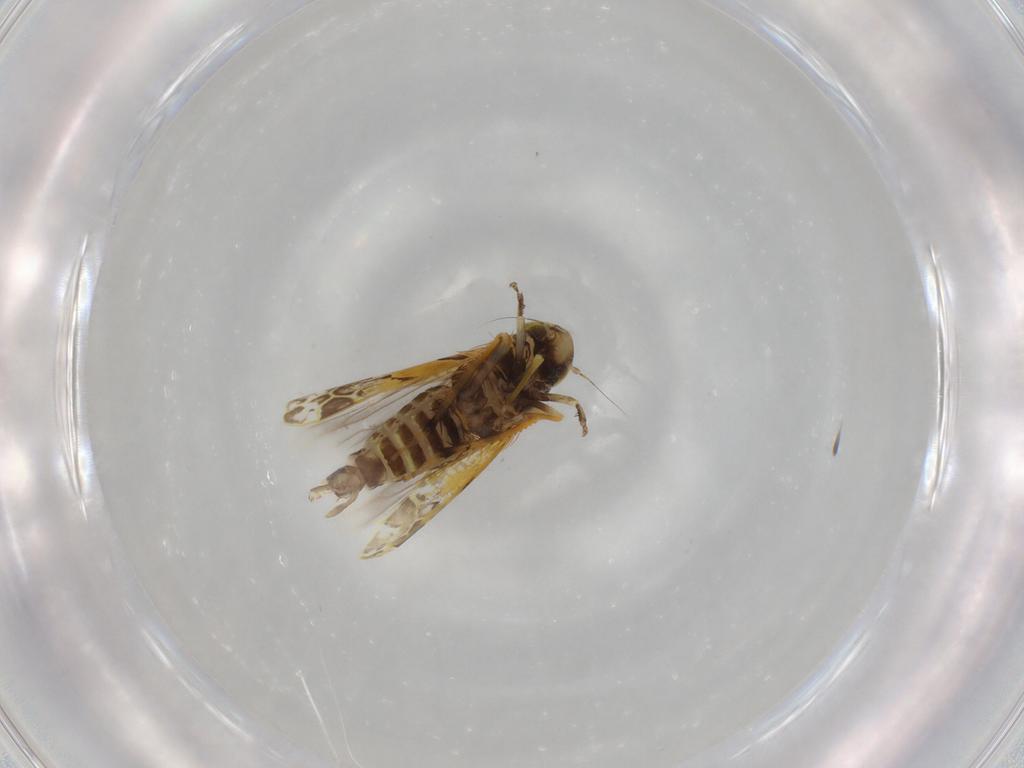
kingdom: Animalia
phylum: Arthropoda
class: Insecta
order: Hemiptera
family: Cicadellidae
